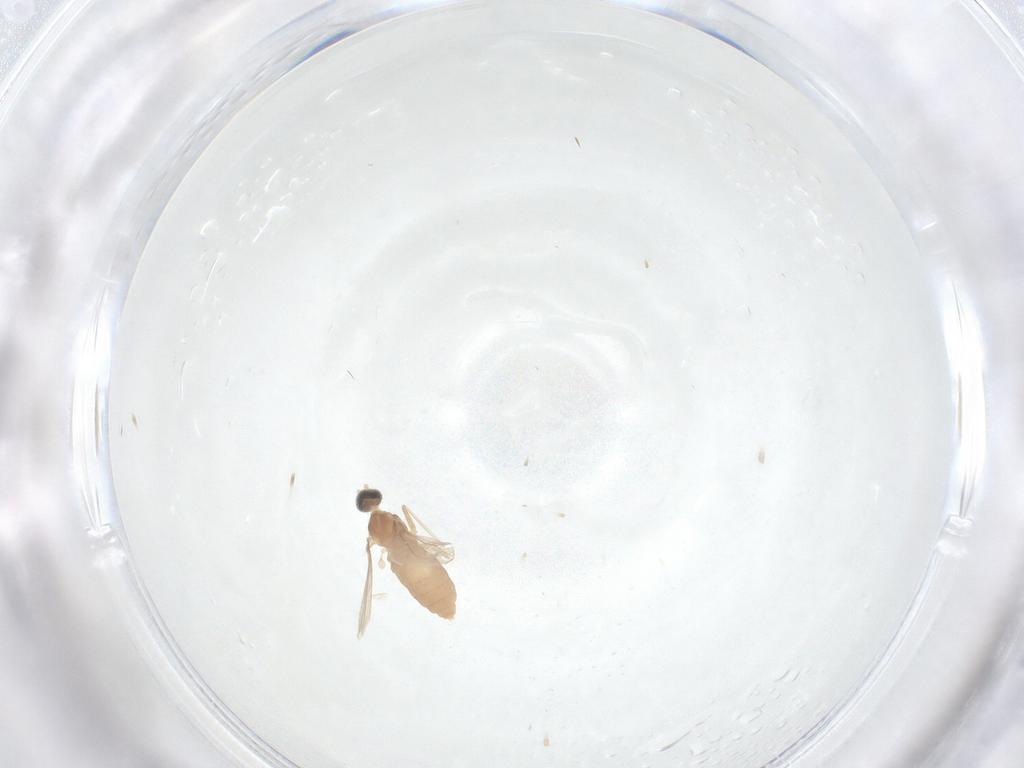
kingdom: Animalia
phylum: Arthropoda
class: Insecta
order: Diptera
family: Cecidomyiidae
